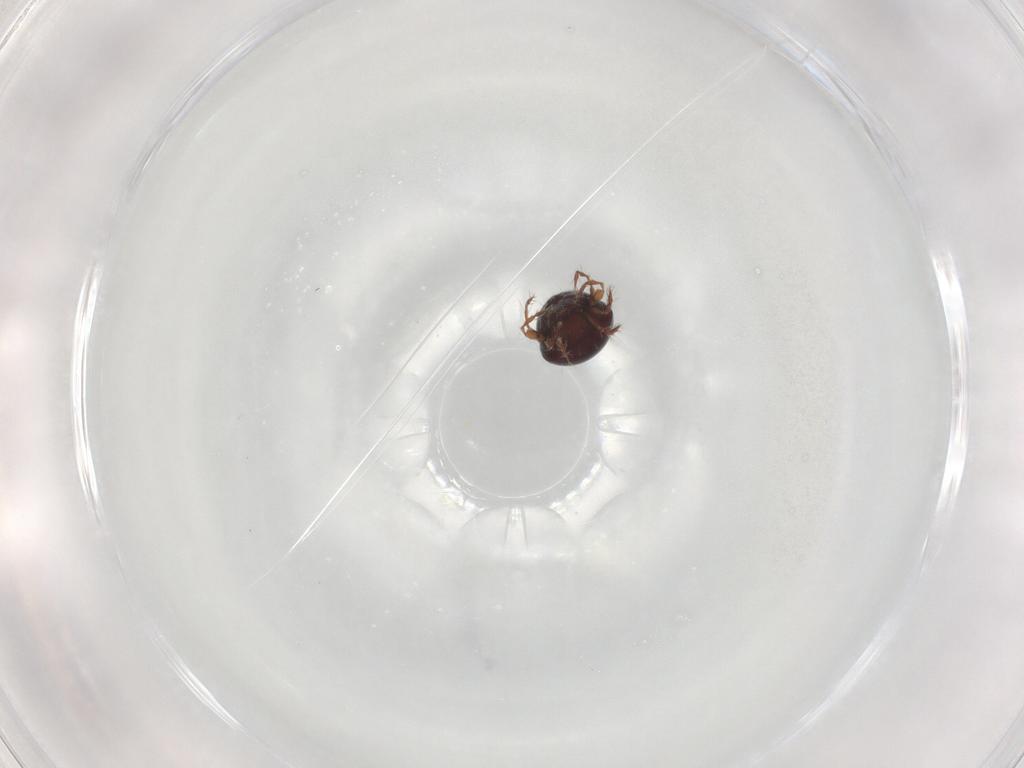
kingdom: Animalia
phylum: Arthropoda
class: Arachnida
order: Sarcoptiformes
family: Ceratoppiidae
